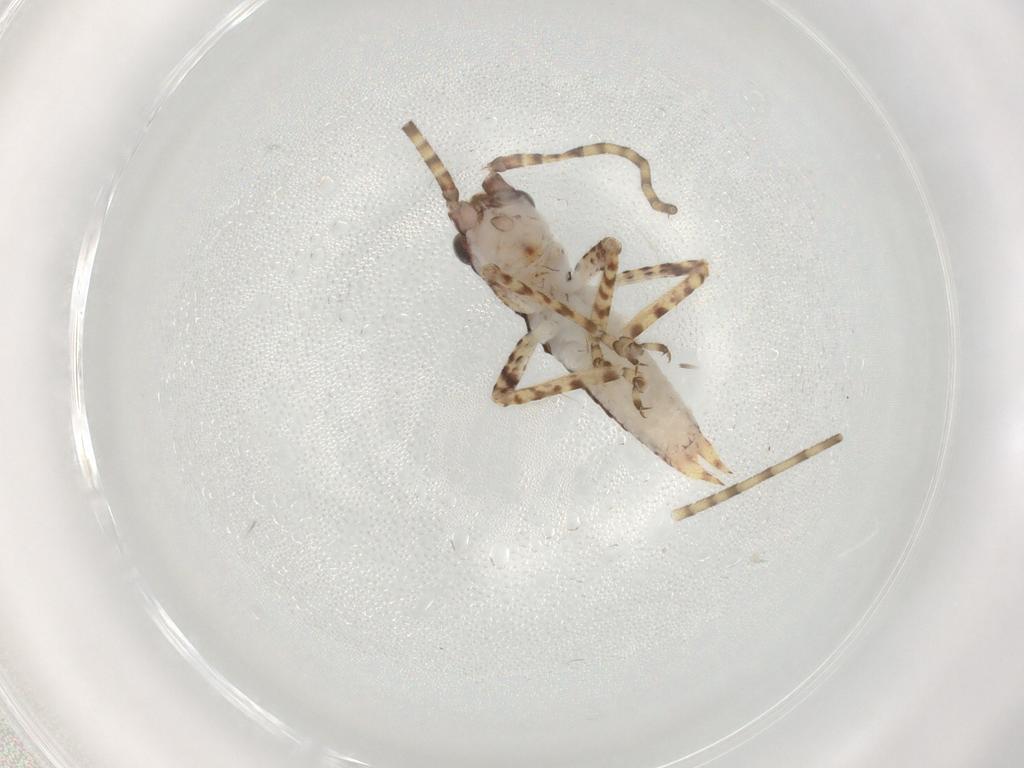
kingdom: Animalia
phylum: Arthropoda
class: Insecta
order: Orthoptera
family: Gryllidae
